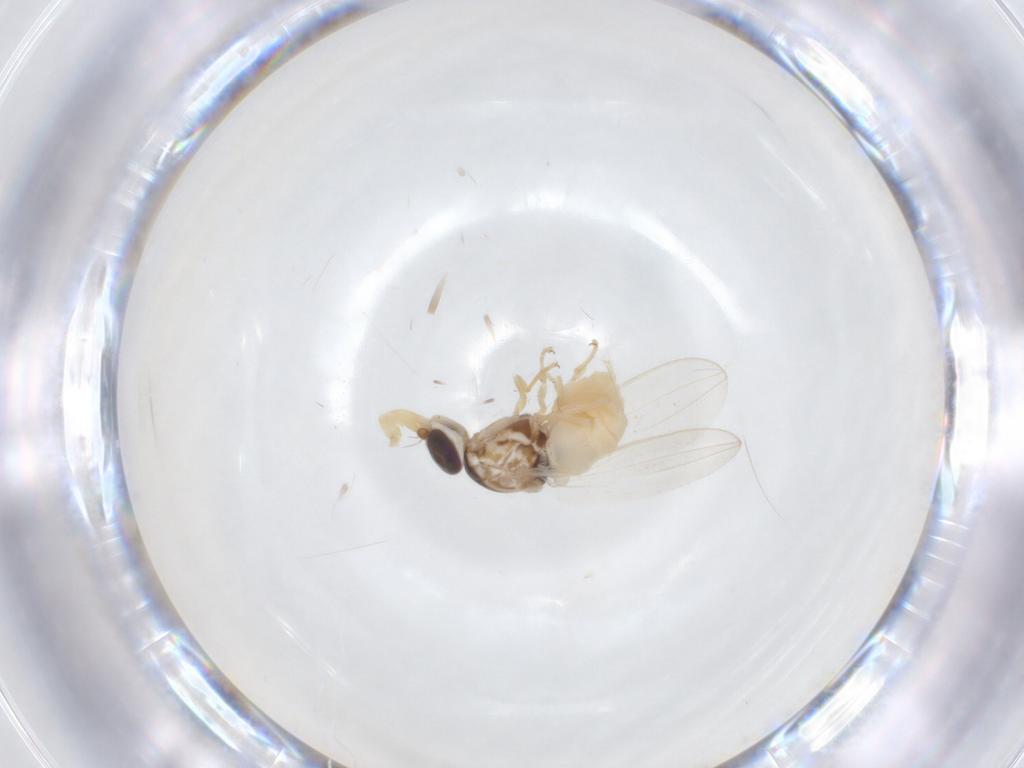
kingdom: Animalia
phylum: Arthropoda
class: Insecta
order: Diptera
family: Chloropidae
